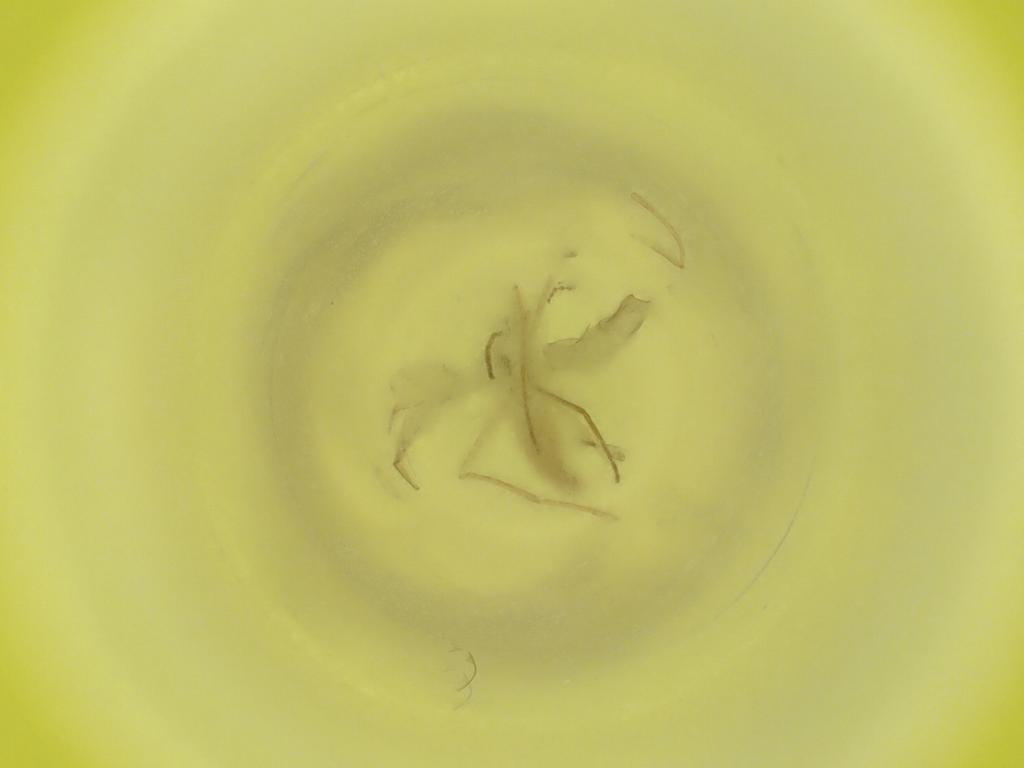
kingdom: Animalia
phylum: Arthropoda
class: Insecta
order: Diptera
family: Cecidomyiidae
